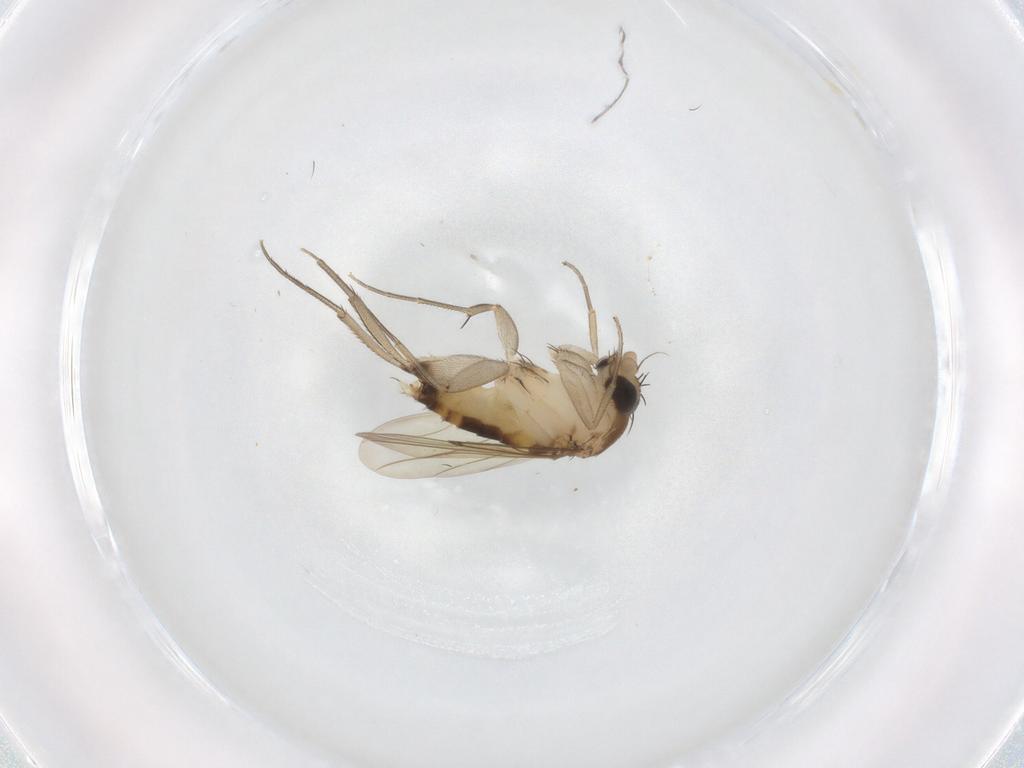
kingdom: Animalia
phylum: Arthropoda
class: Insecta
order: Diptera
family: Sciaridae
